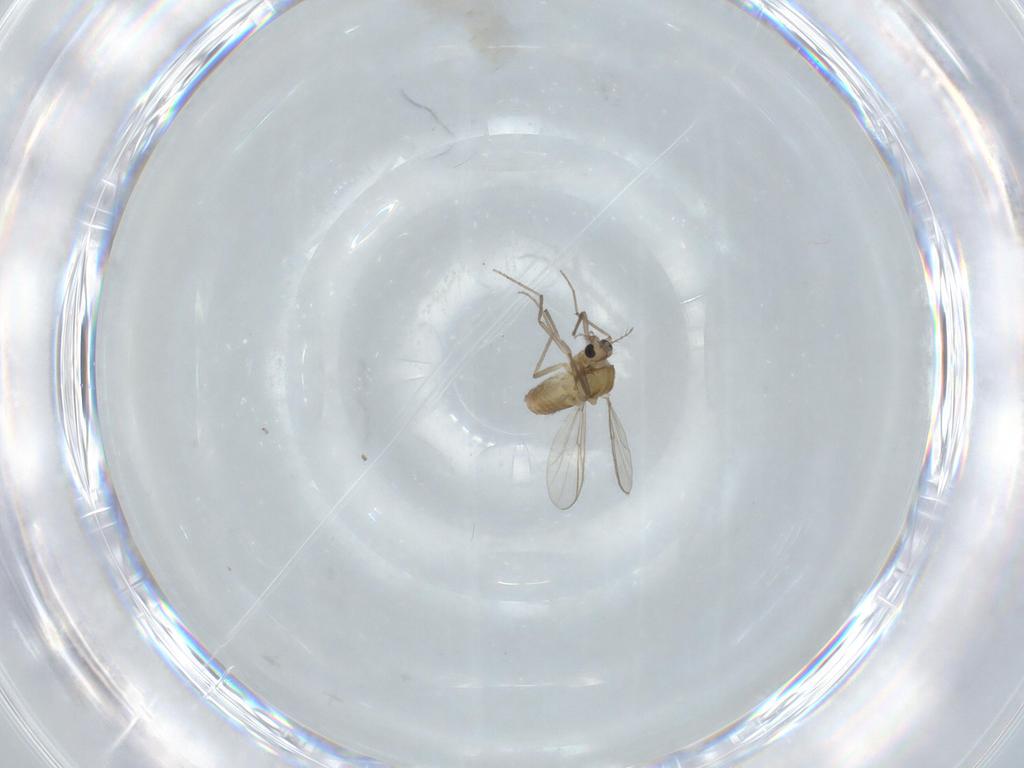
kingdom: Animalia
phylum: Arthropoda
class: Insecta
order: Diptera
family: Chironomidae
